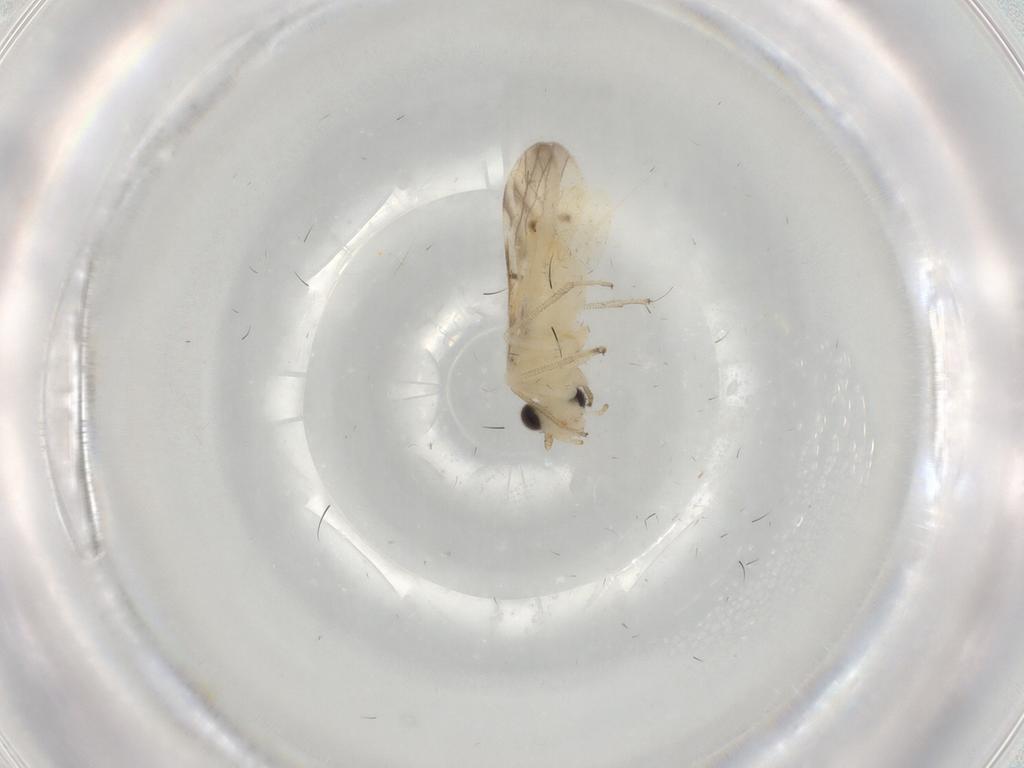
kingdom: Animalia
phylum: Arthropoda
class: Insecta
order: Psocodea
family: Caeciliusidae
